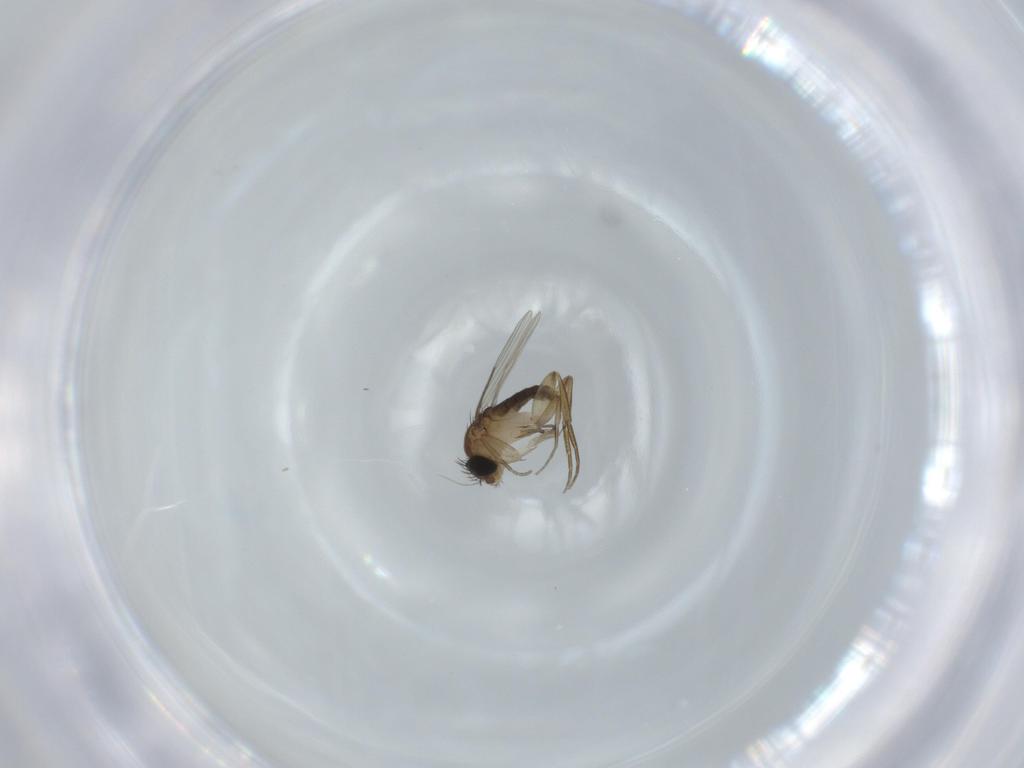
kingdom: Animalia
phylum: Arthropoda
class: Insecta
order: Diptera
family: Phoridae
